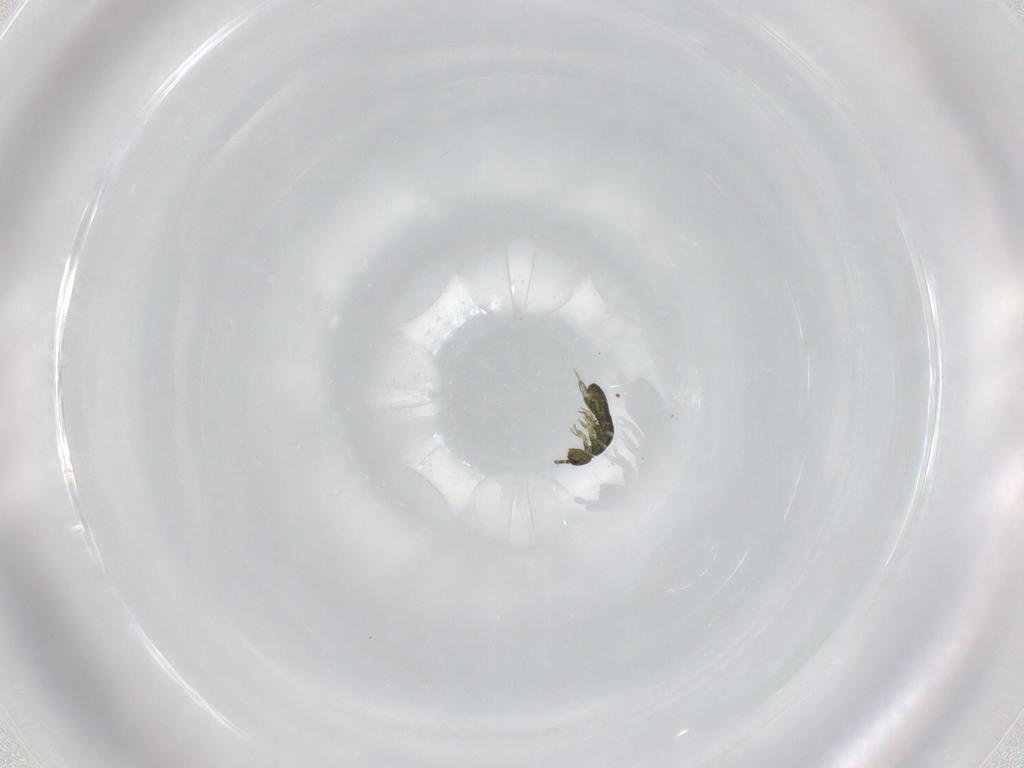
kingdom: Animalia
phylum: Arthropoda
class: Collembola
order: Entomobryomorpha
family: Isotomidae
